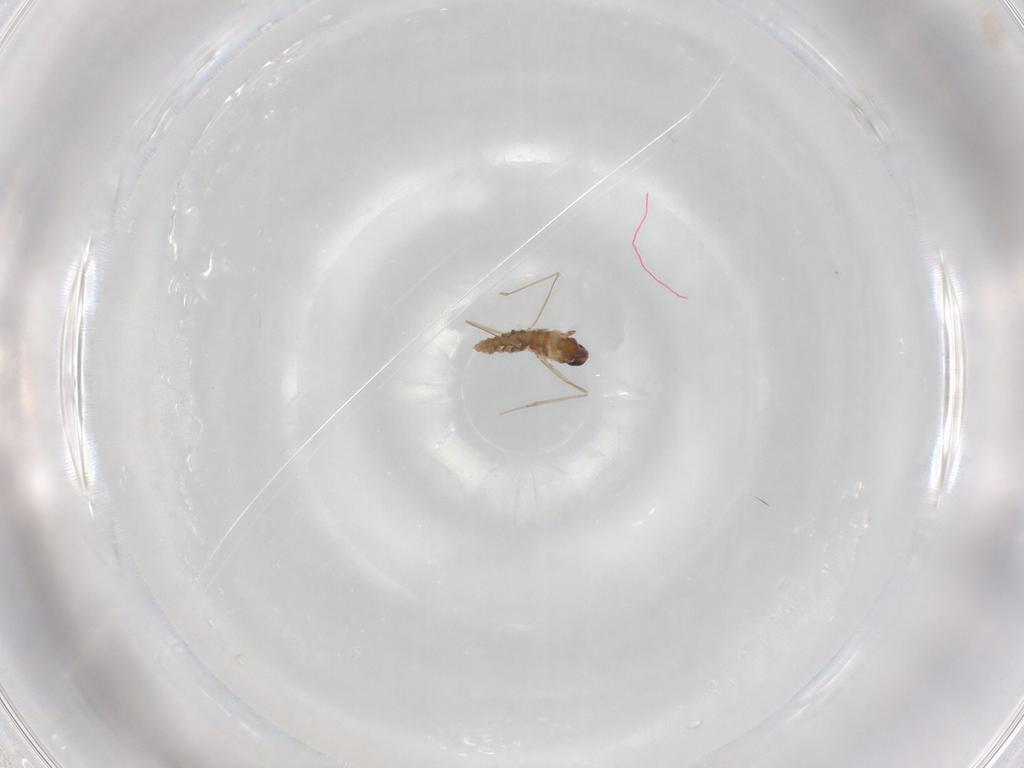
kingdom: Animalia
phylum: Arthropoda
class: Insecta
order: Diptera
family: Cecidomyiidae
